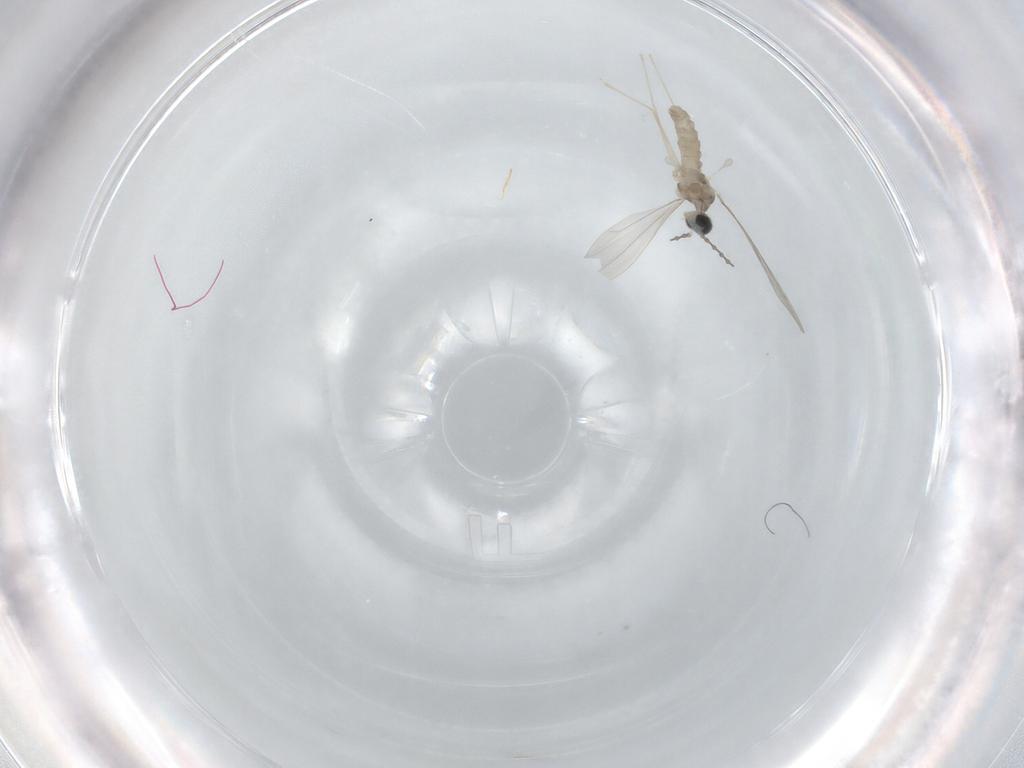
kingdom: Animalia
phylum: Arthropoda
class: Insecta
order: Diptera
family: Cecidomyiidae
